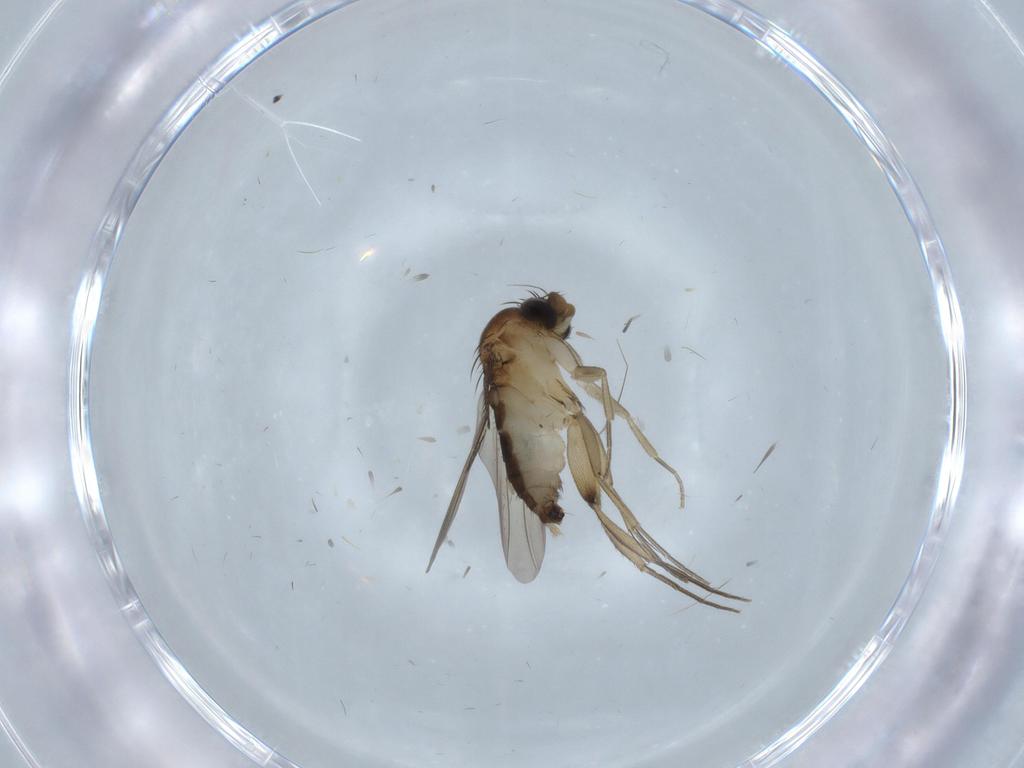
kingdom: Animalia
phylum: Arthropoda
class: Insecta
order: Diptera
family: Phoridae
